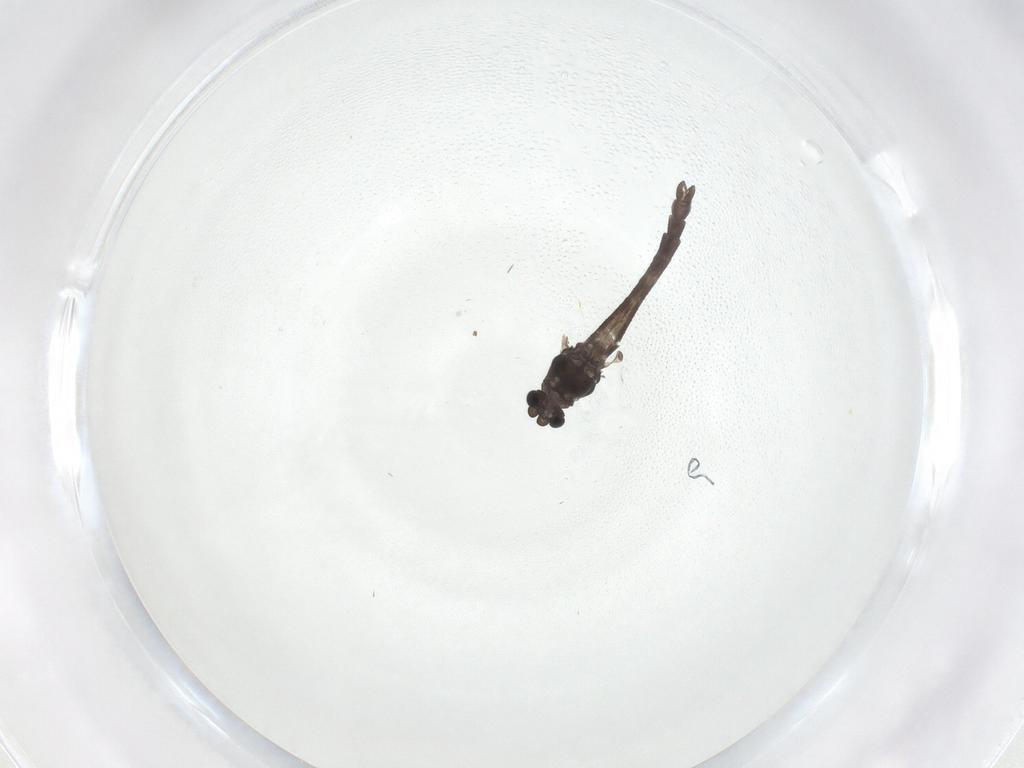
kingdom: Animalia
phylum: Arthropoda
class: Insecta
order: Diptera
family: Chironomidae
